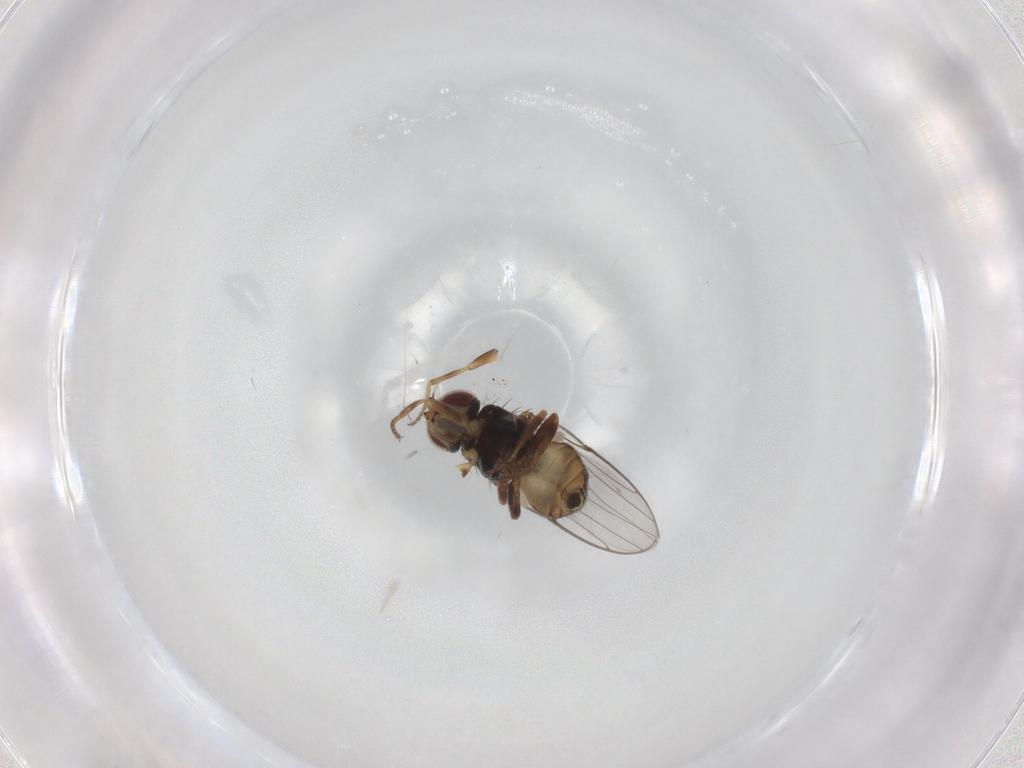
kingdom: Animalia
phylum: Arthropoda
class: Insecta
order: Diptera
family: Chloropidae
